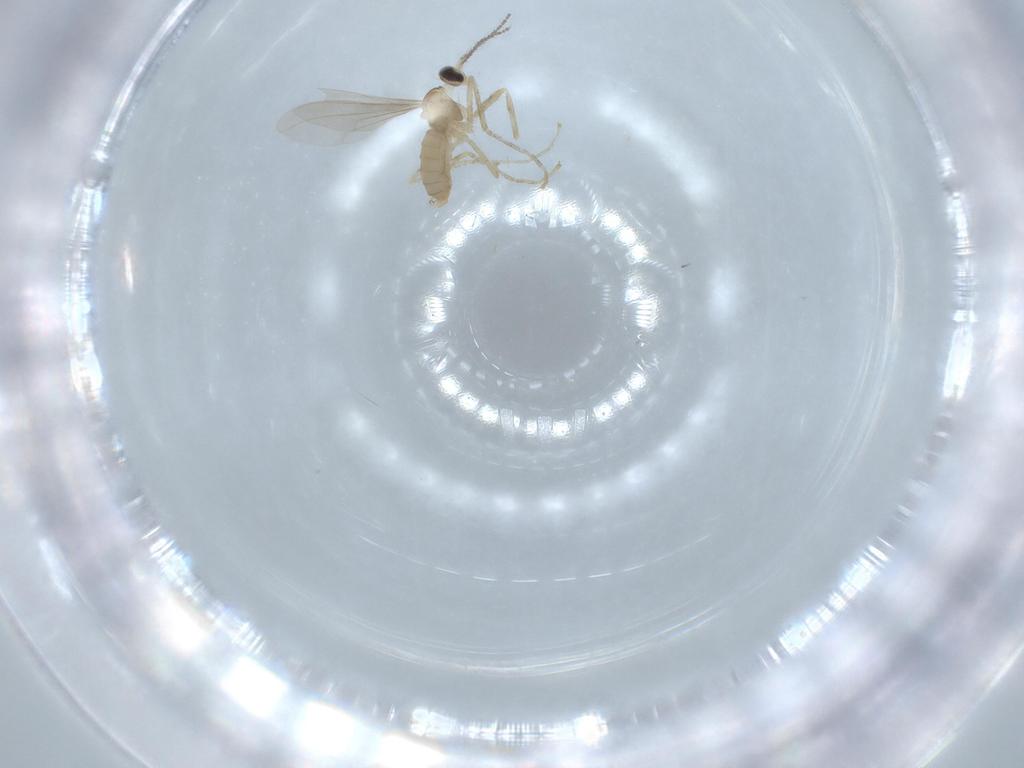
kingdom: Animalia
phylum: Arthropoda
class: Insecta
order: Diptera
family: Cecidomyiidae
